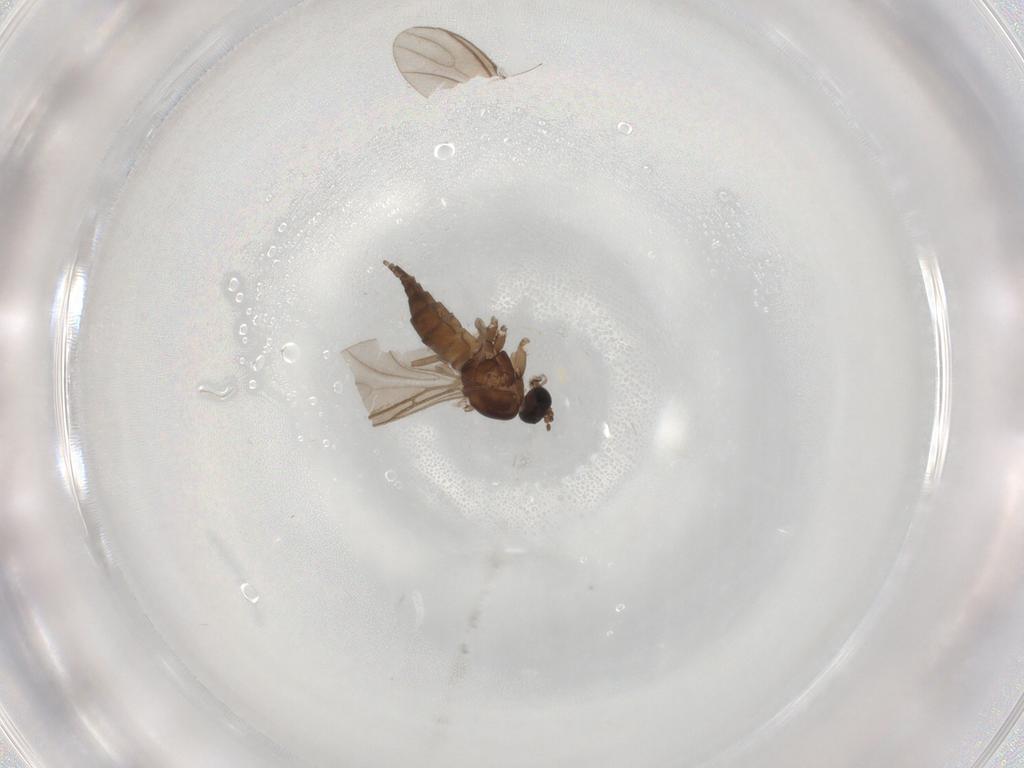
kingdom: Animalia
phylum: Arthropoda
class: Insecta
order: Diptera
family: Sciaridae
